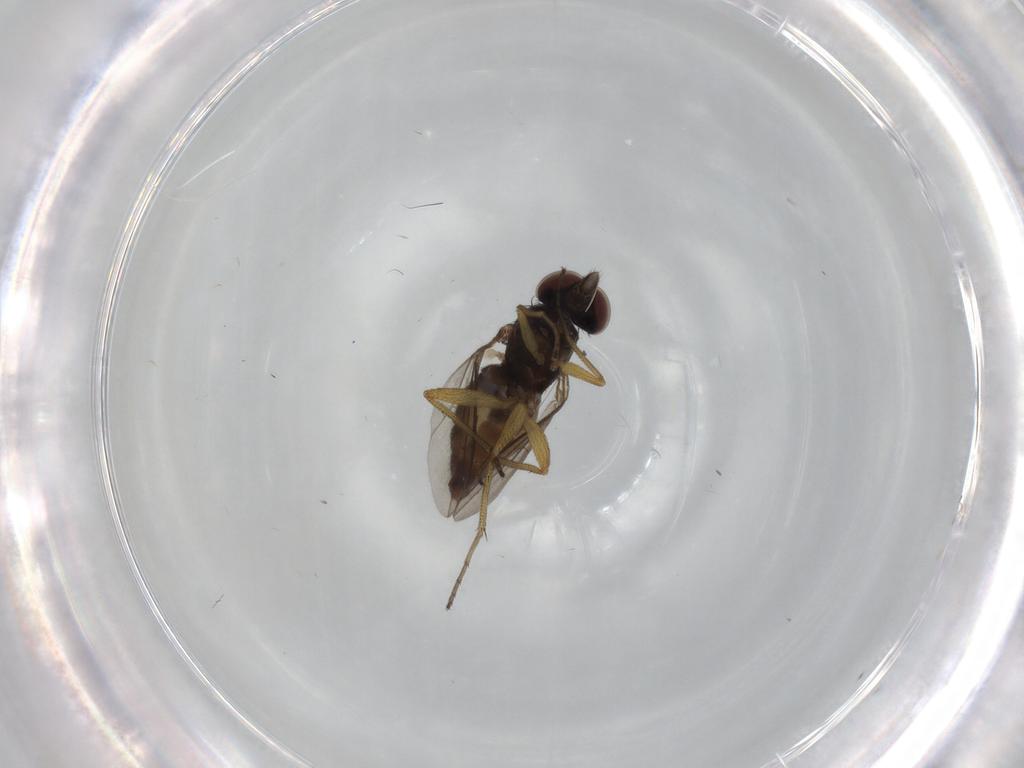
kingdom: Animalia
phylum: Arthropoda
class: Insecta
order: Diptera
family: Dolichopodidae
